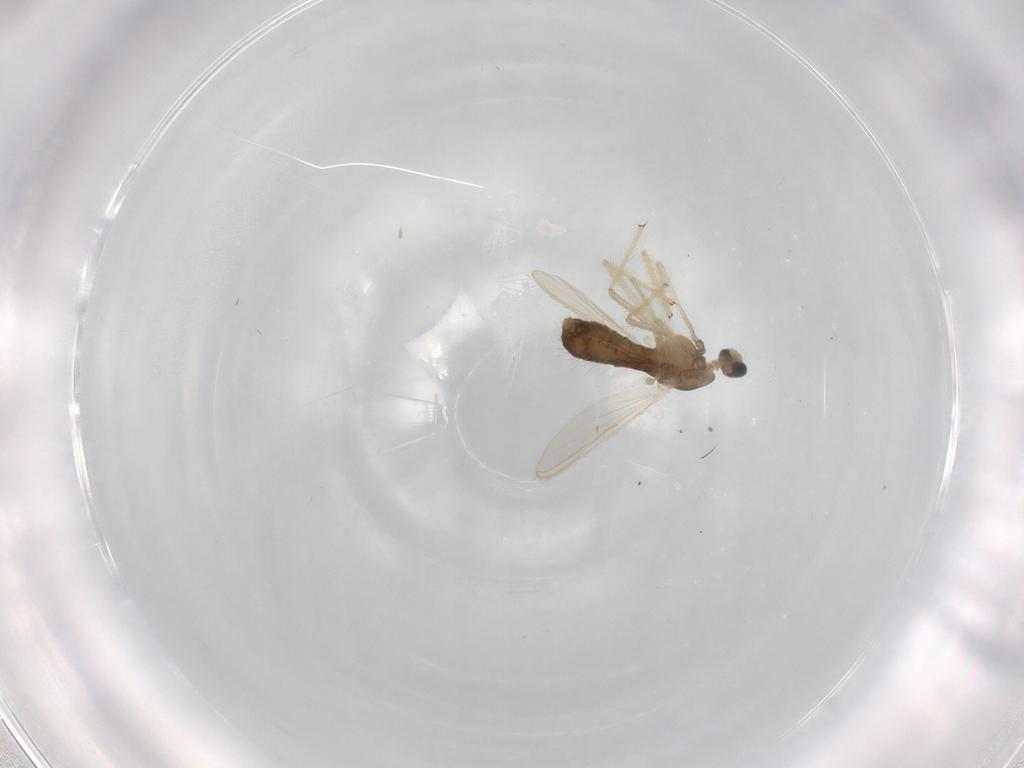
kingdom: Animalia
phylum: Arthropoda
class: Insecta
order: Diptera
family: Chironomidae
